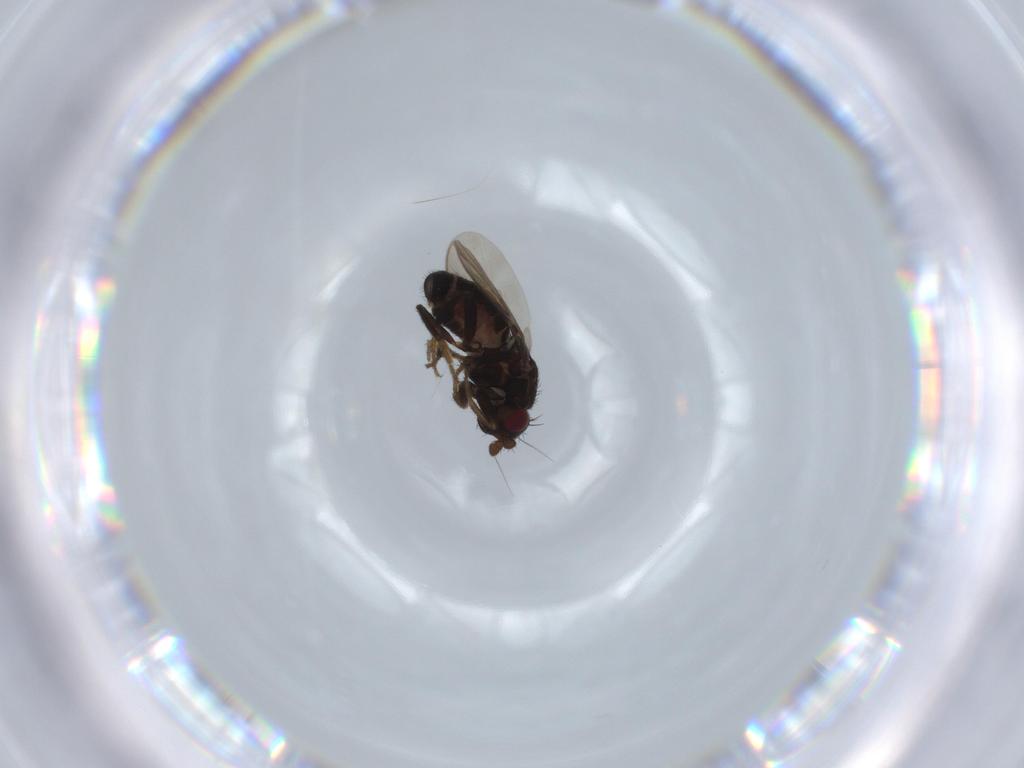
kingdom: Animalia
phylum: Arthropoda
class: Insecta
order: Diptera
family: Sphaeroceridae
